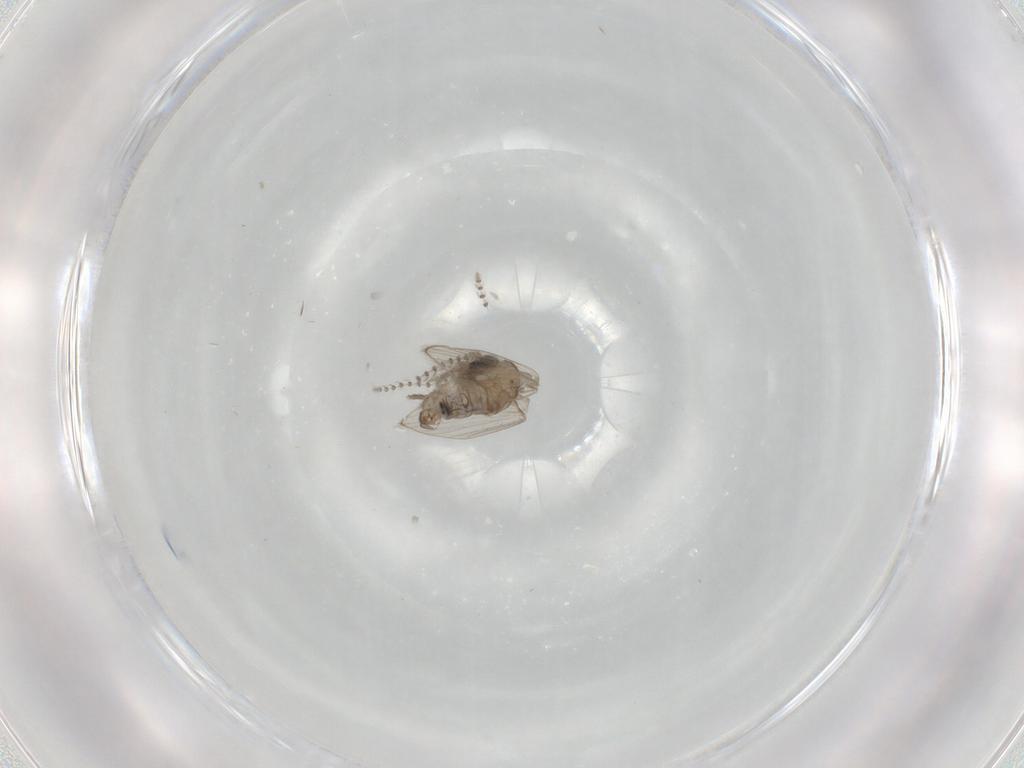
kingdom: Animalia
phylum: Arthropoda
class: Insecta
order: Diptera
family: Psychodidae
